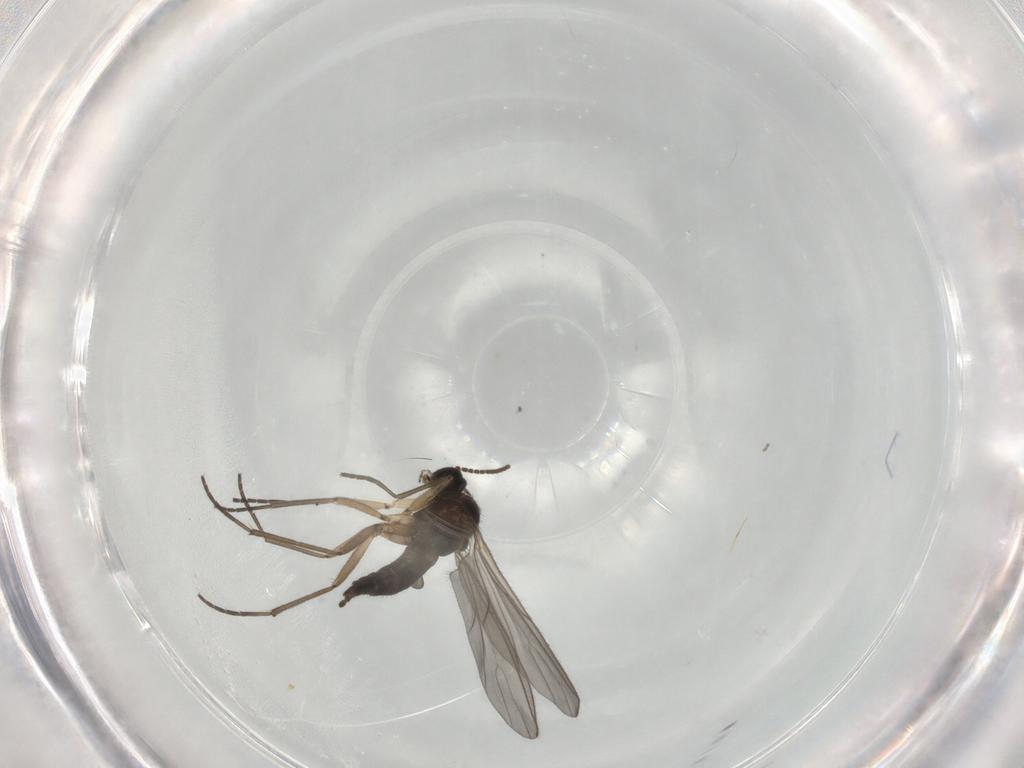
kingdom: Animalia
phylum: Arthropoda
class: Insecta
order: Diptera
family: Sciaridae
